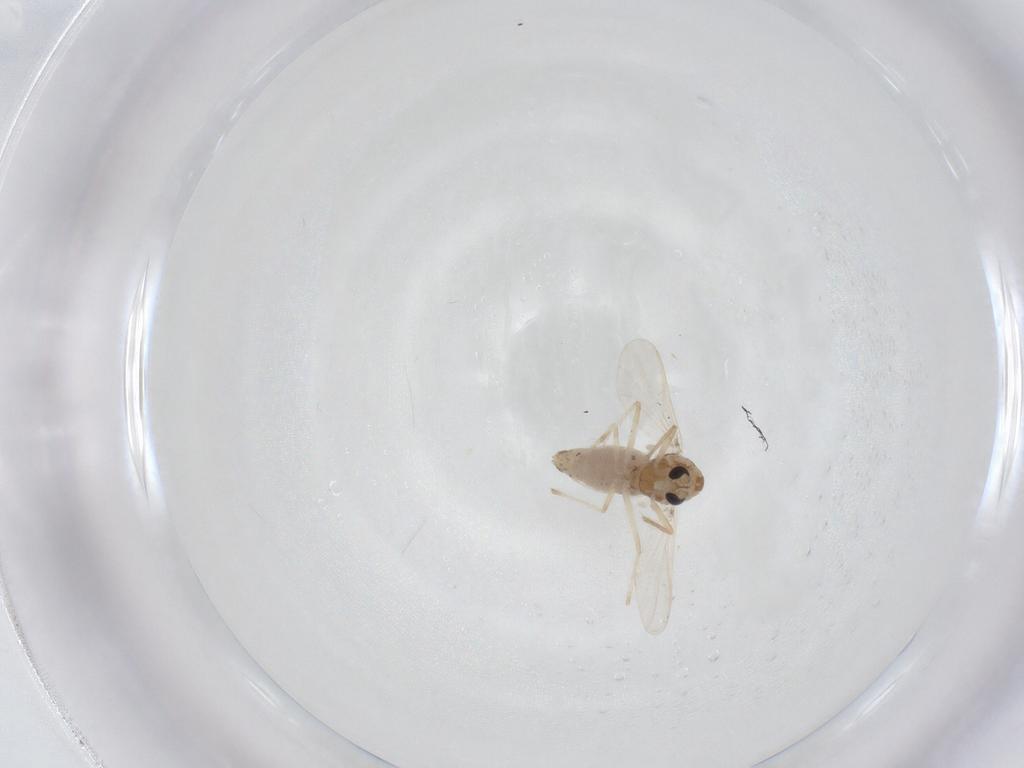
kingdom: Animalia
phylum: Arthropoda
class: Insecta
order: Diptera
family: Chironomidae
